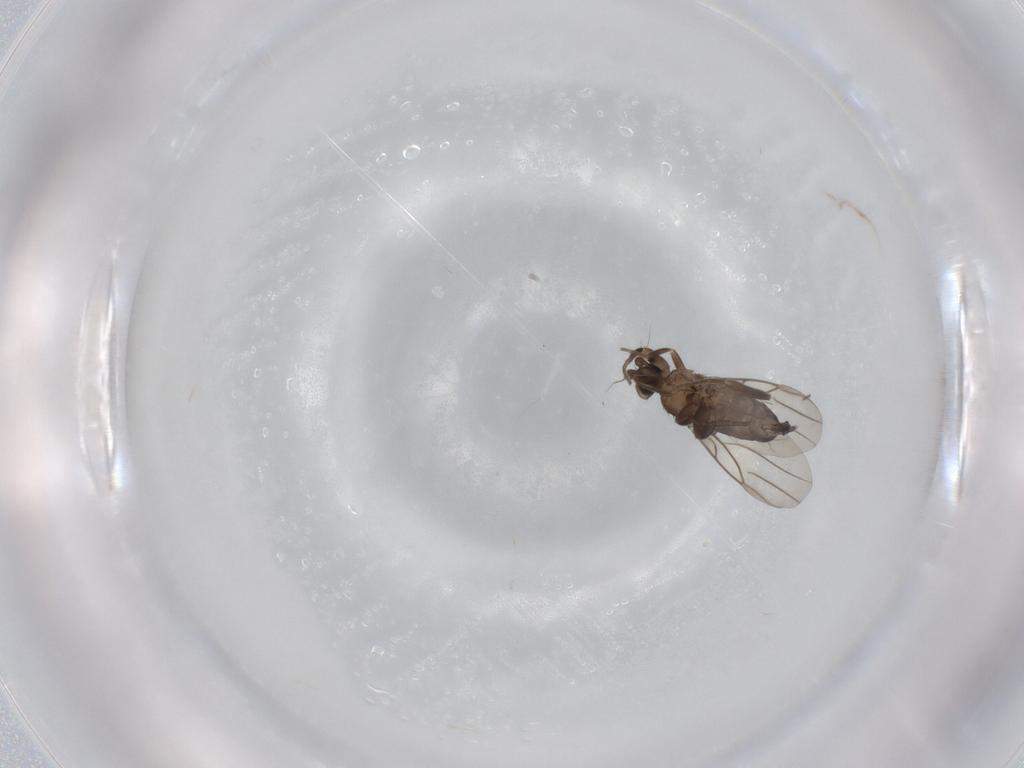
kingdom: Animalia
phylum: Arthropoda
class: Insecta
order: Diptera
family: Phoridae
